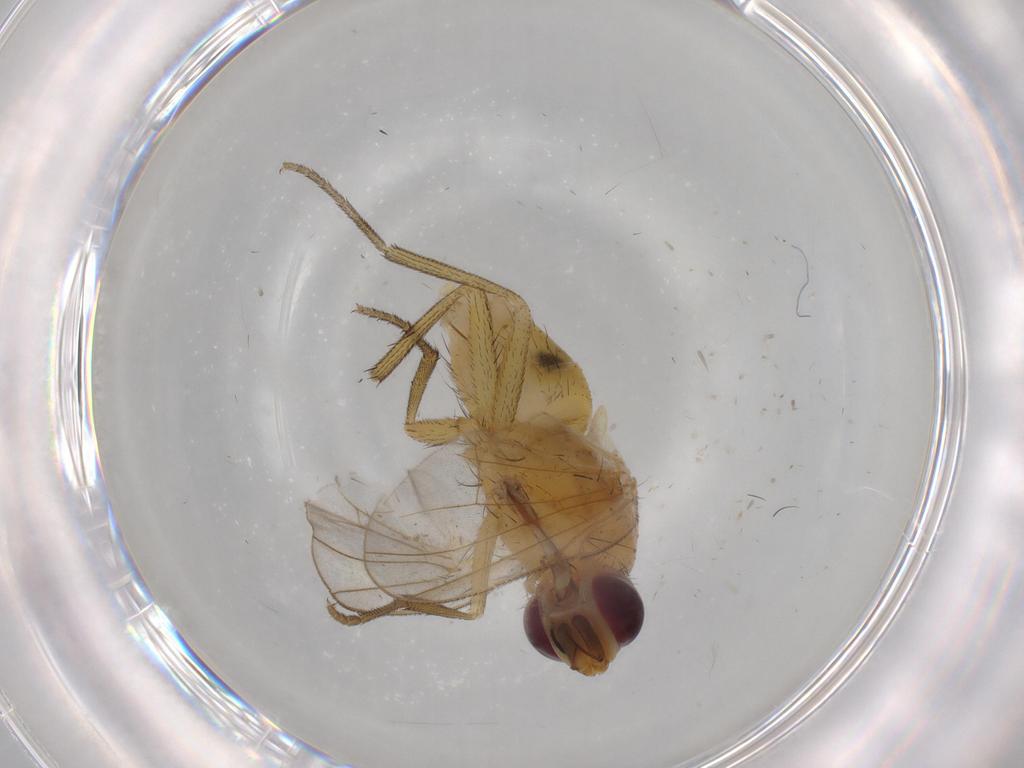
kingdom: Animalia
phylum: Arthropoda
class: Insecta
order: Diptera
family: Muscidae
